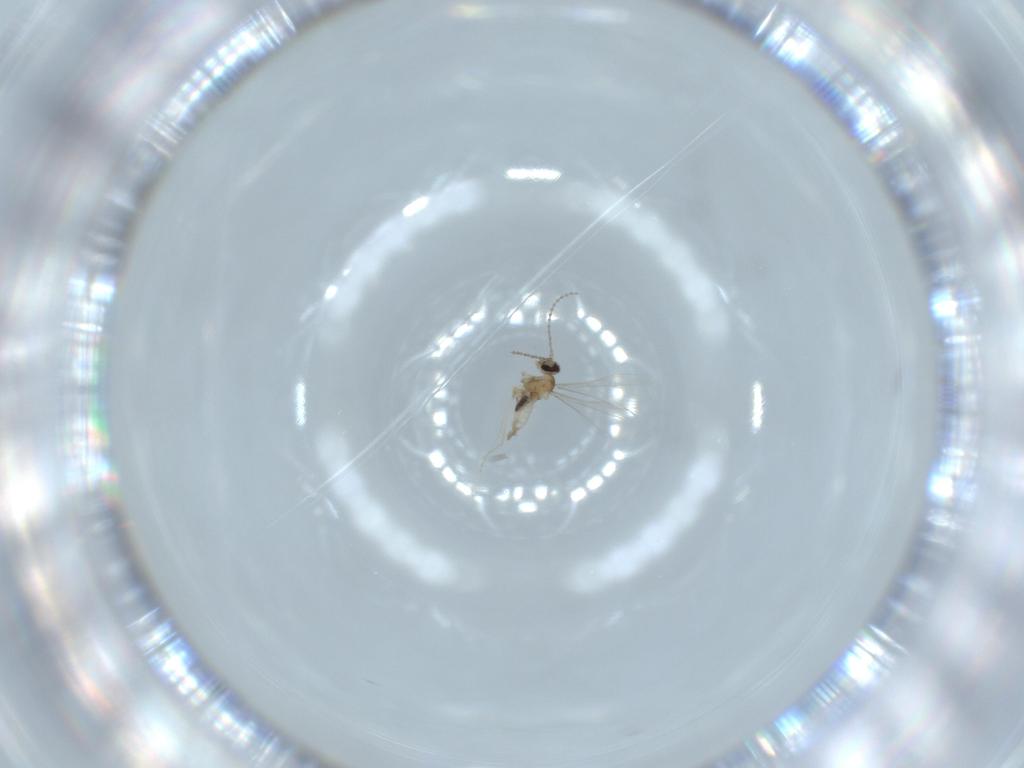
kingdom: Animalia
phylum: Arthropoda
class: Insecta
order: Diptera
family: Cecidomyiidae
